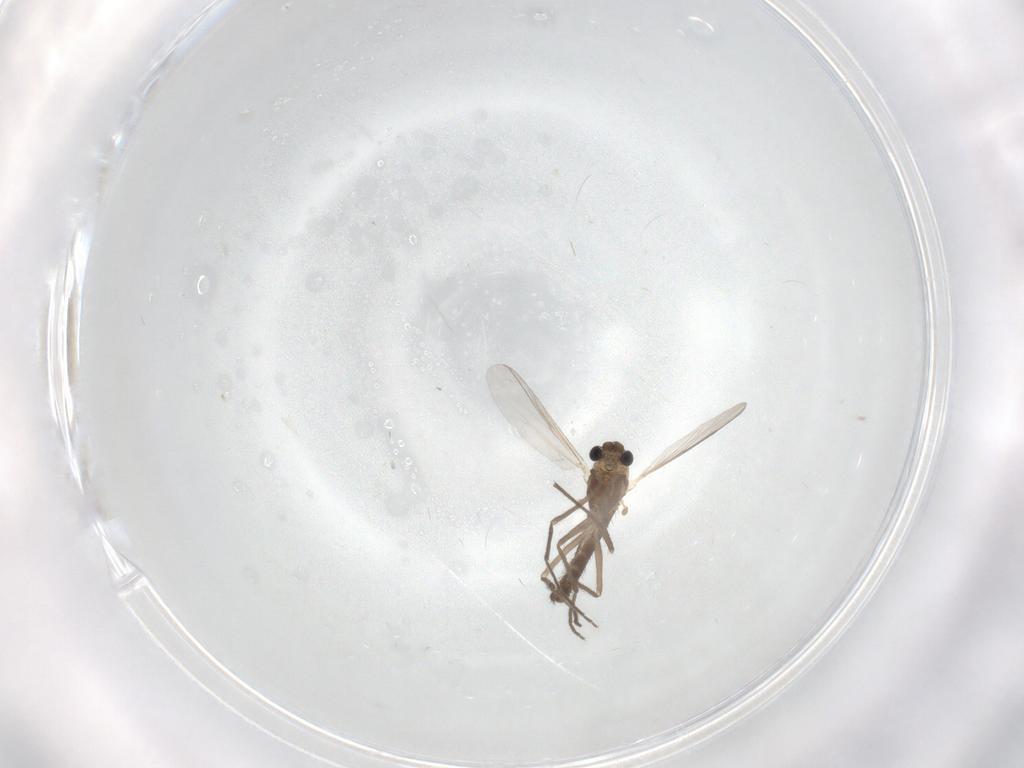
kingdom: Animalia
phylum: Arthropoda
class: Insecta
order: Diptera
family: Chironomidae
